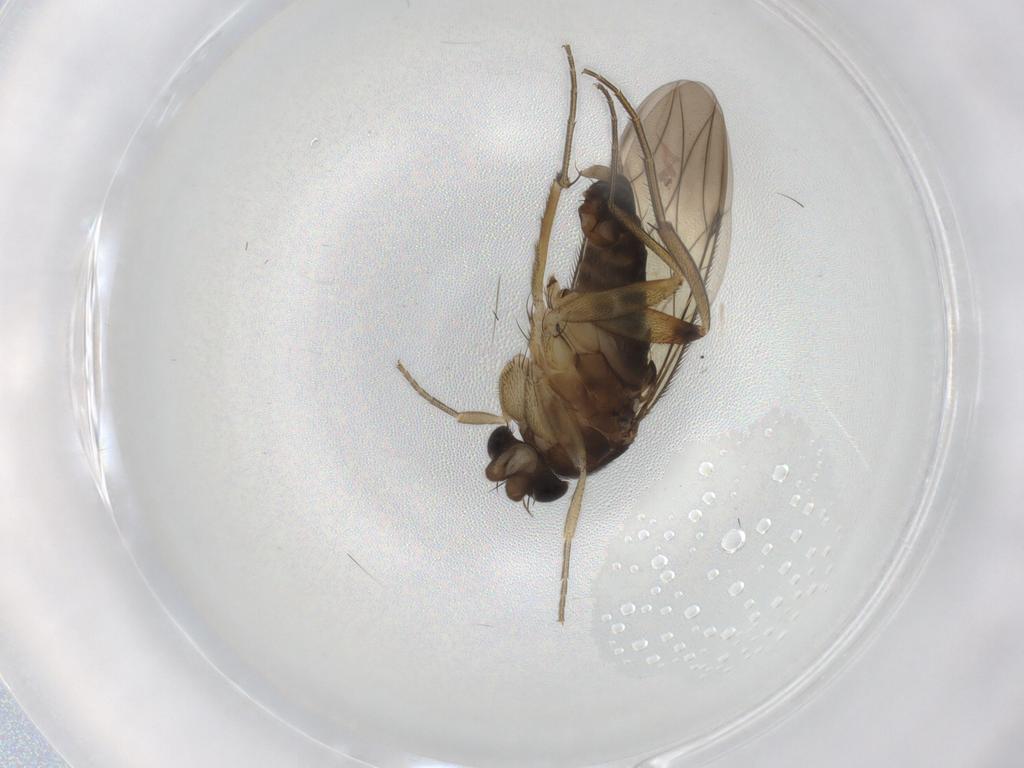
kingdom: Animalia
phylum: Arthropoda
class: Insecta
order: Diptera
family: Phoridae
